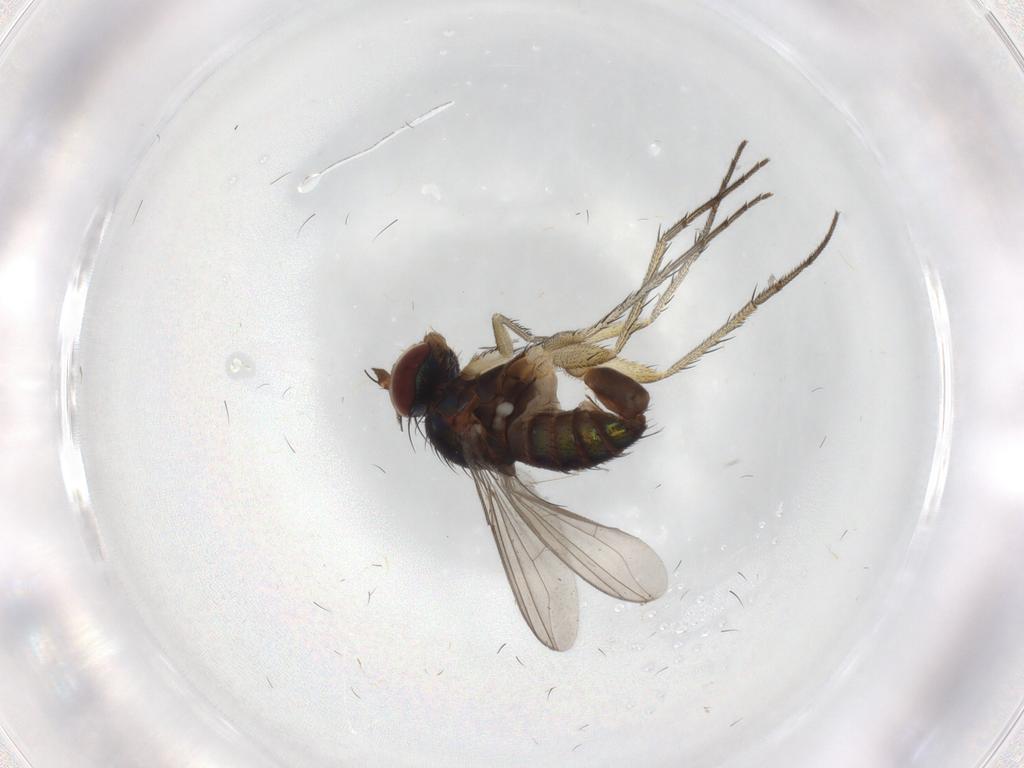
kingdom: Animalia
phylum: Arthropoda
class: Insecta
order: Diptera
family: Dolichopodidae
